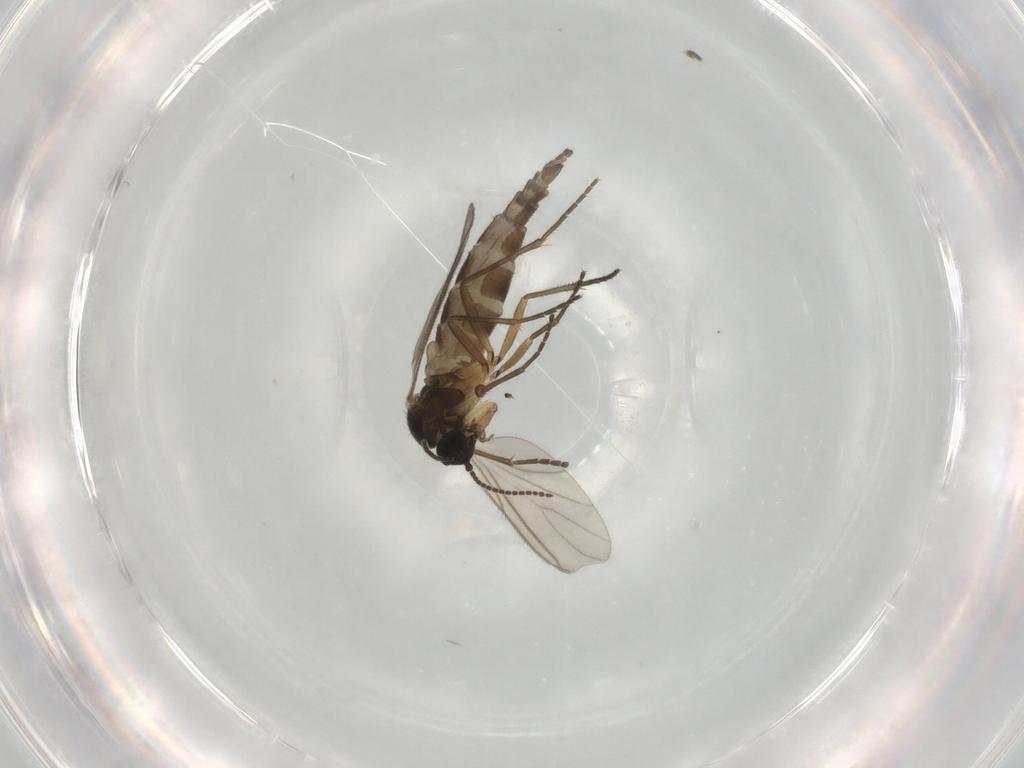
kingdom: Animalia
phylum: Arthropoda
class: Insecta
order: Diptera
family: Sciaridae
